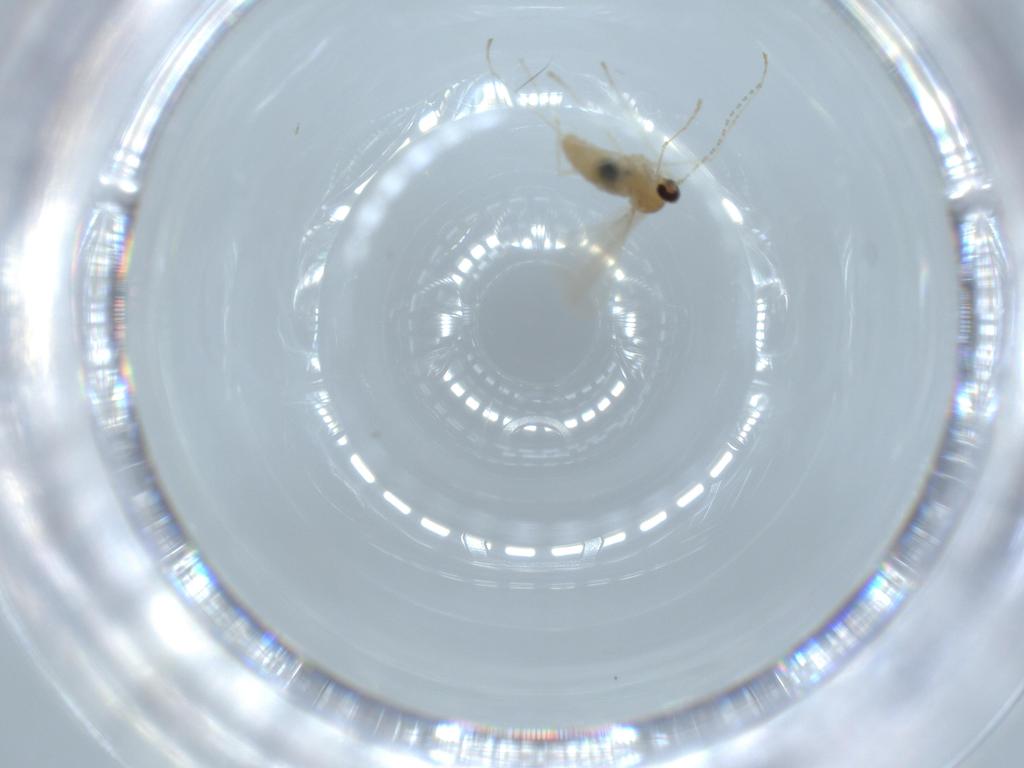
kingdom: Animalia
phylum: Arthropoda
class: Insecta
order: Diptera
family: Cecidomyiidae
